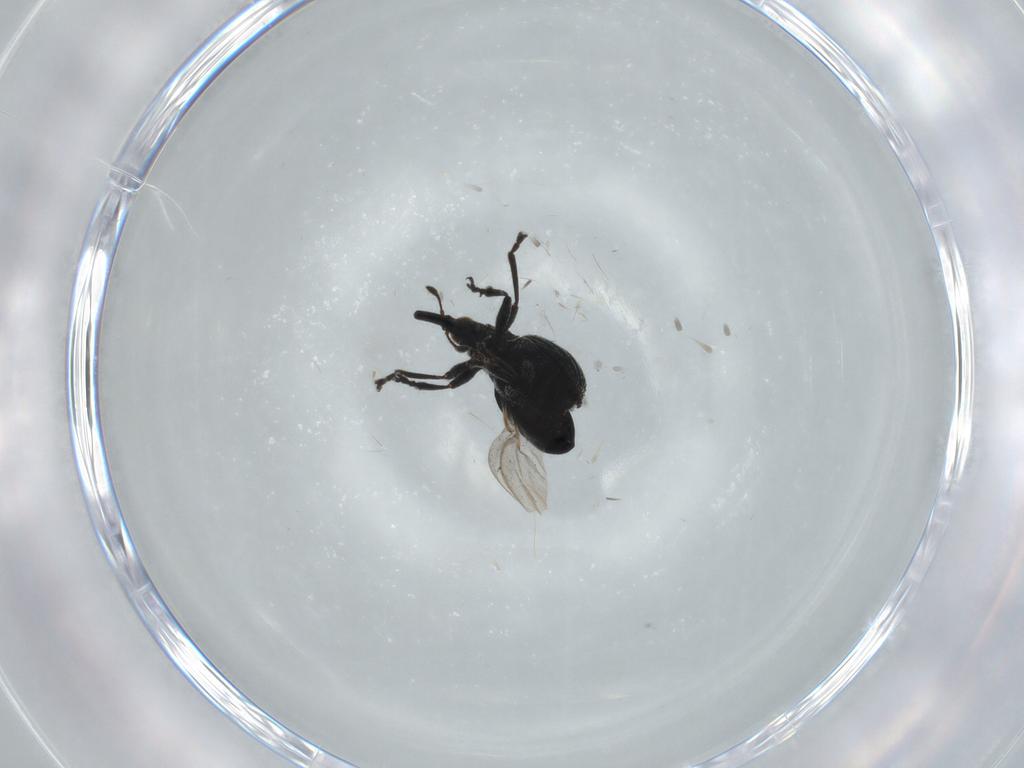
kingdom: Animalia
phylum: Arthropoda
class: Insecta
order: Coleoptera
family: Brentidae
